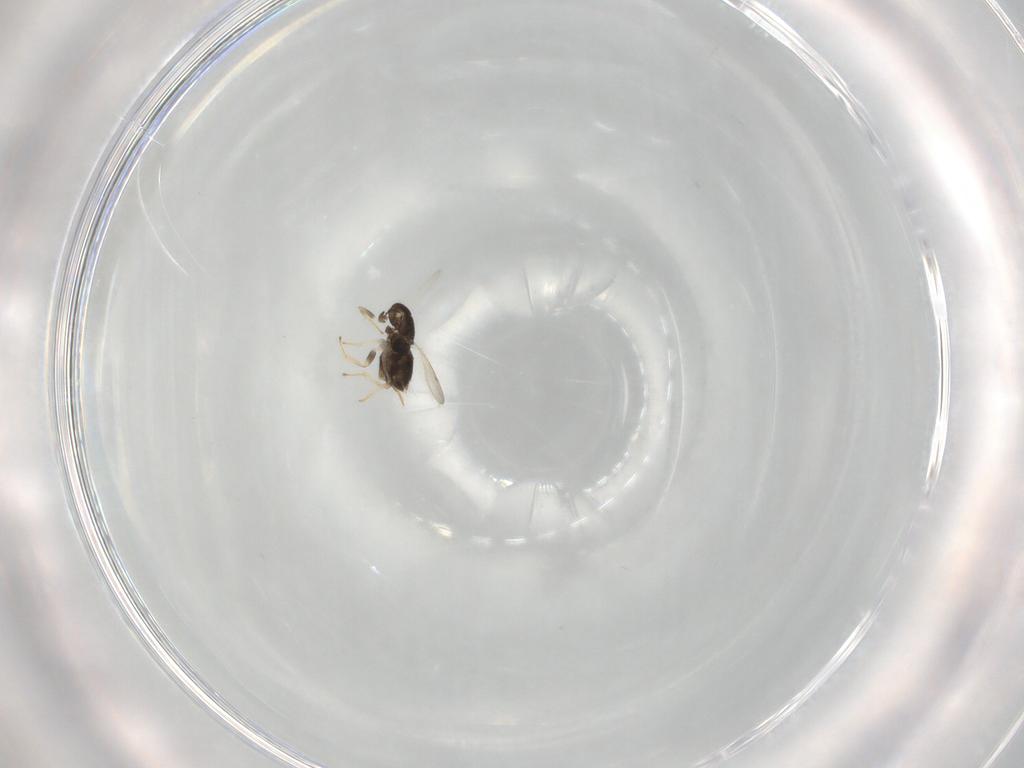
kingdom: Animalia
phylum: Arthropoda
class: Insecta
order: Hymenoptera
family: Aphelinidae
